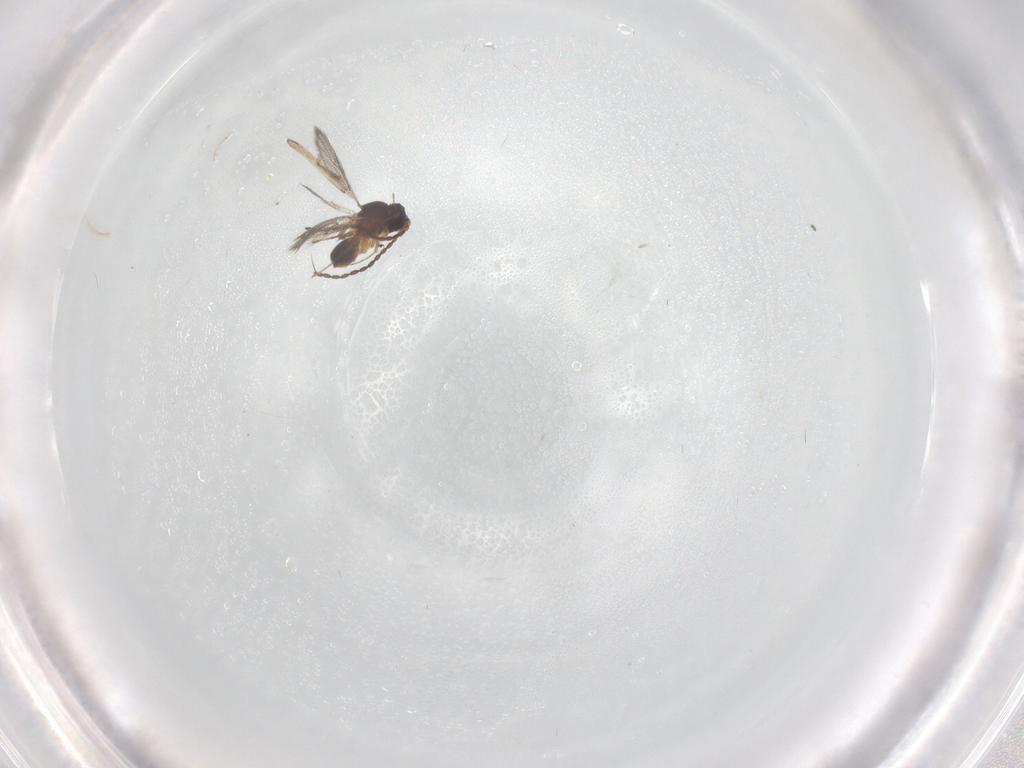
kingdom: Animalia
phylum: Arthropoda
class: Insecta
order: Hymenoptera
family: Figitidae
